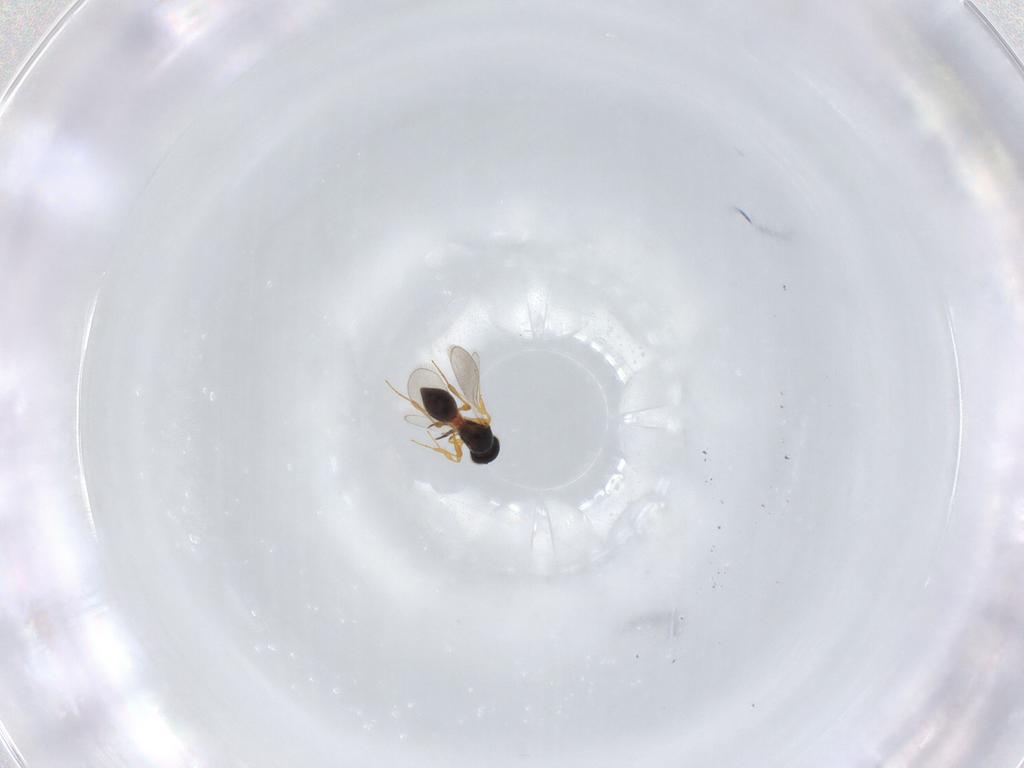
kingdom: Animalia
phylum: Arthropoda
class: Insecta
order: Hymenoptera
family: Platygastridae
